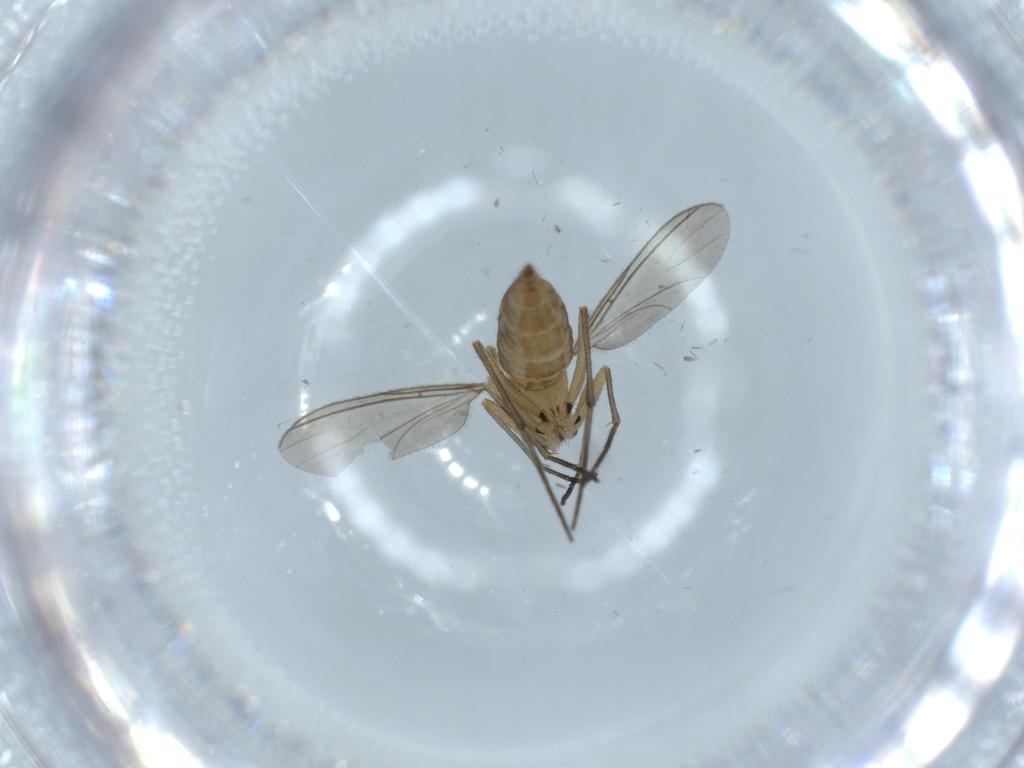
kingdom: Animalia
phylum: Arthropoda
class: Insecta
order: Diptera
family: Sciaridae
